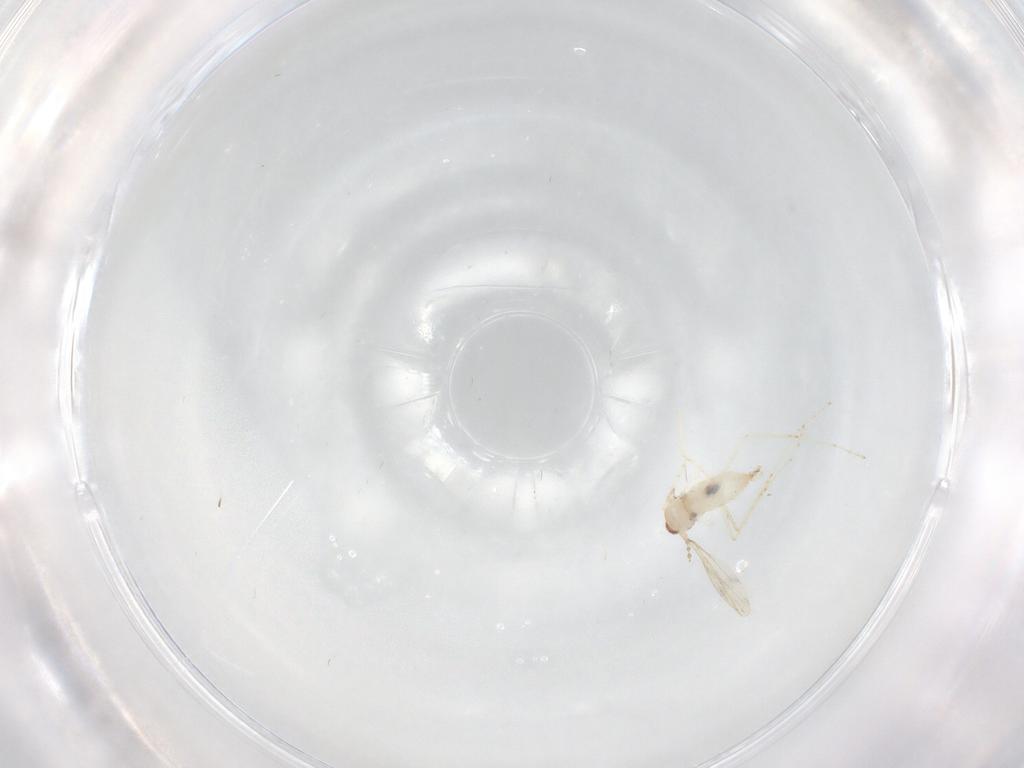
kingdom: Animalia
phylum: Arthropoda
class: Insecta
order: Diptera
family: Cecidomyiidae
